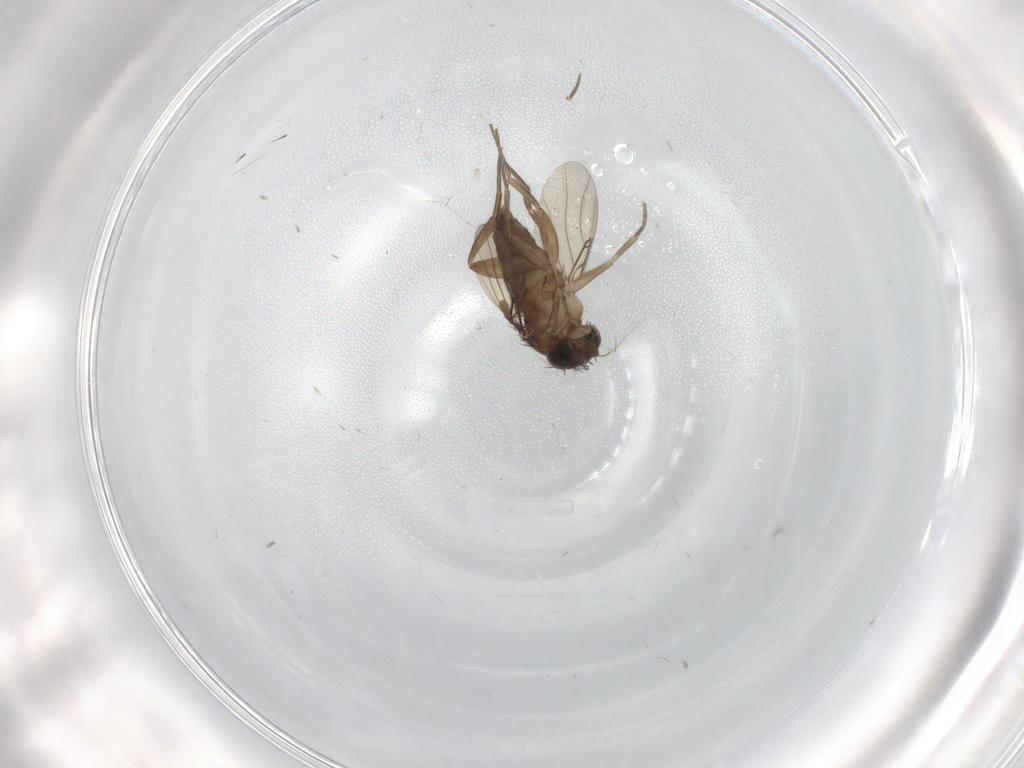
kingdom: Animalia
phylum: Arthropoda
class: Insecta
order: Diptera
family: Phoridae
